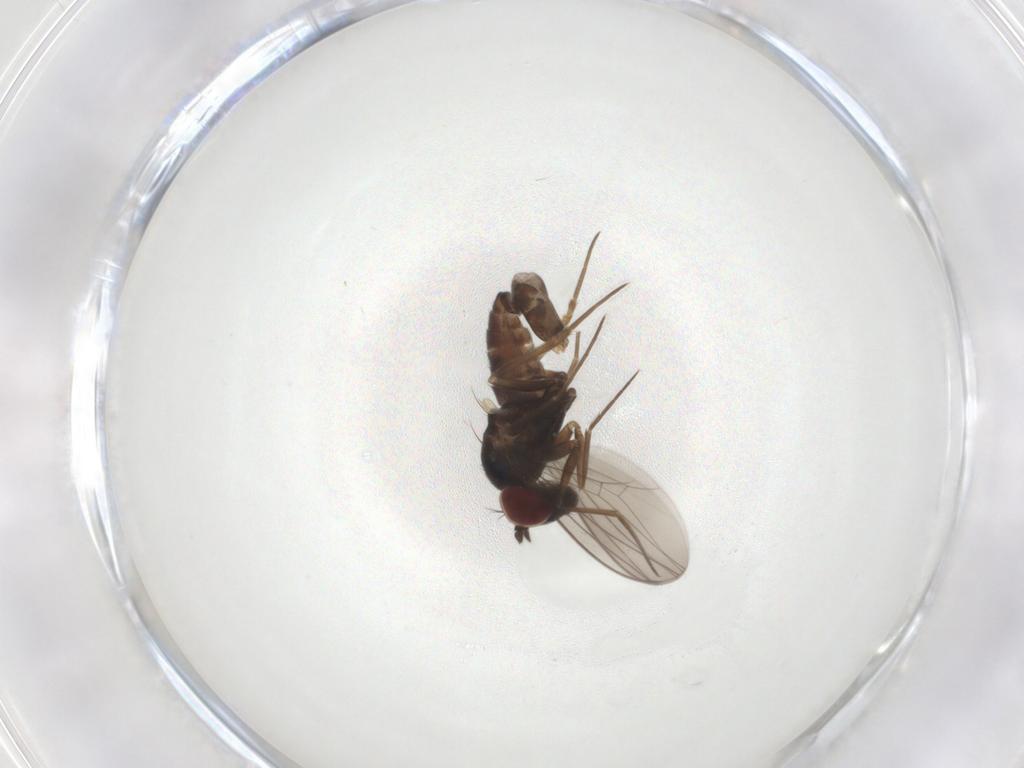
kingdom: Animalia
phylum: Arthropoda
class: Insecta
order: Diptera
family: Dolichopodidae
